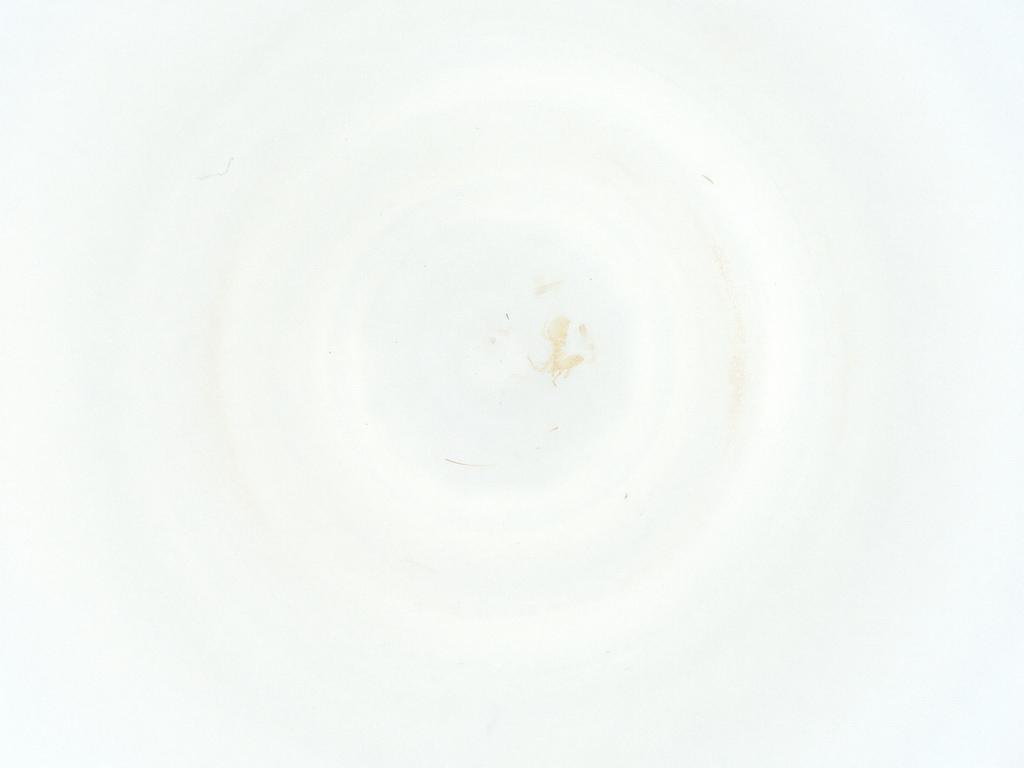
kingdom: Animalia
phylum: Arthropoda
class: Arachnida
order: Mesostigmata
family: Phytoseiidae
